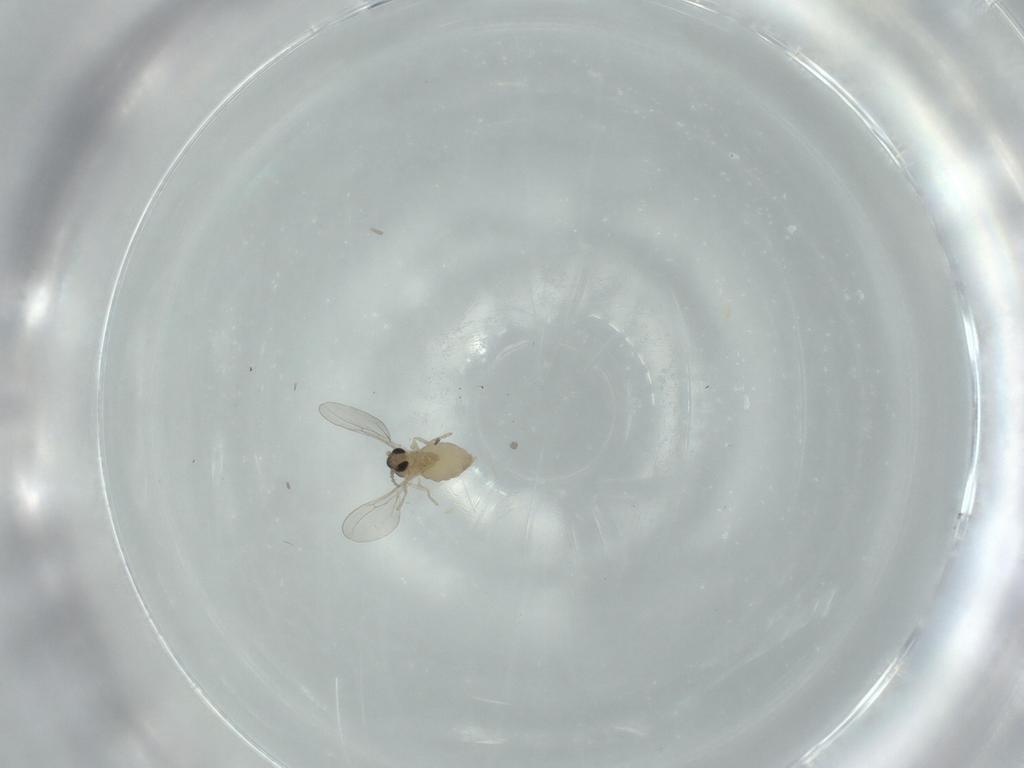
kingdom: Animalia
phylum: Arthropoda
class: Insecta
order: Diptera
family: Cecidomyiidae
